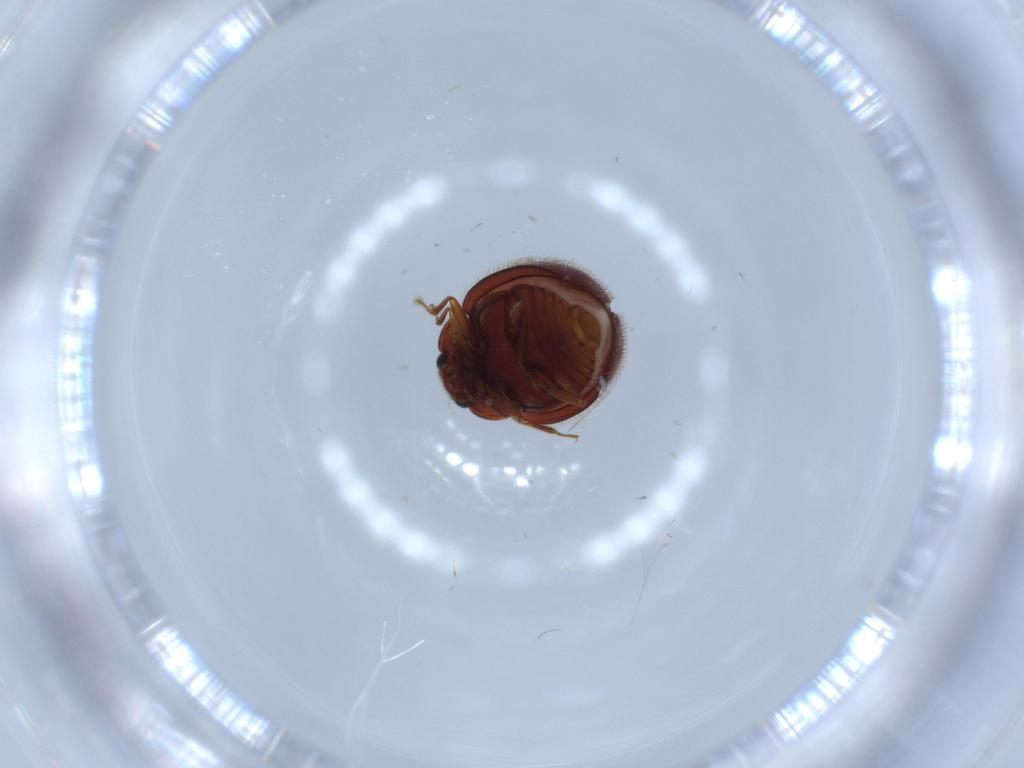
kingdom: Animalia
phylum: Arthropoda
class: Insecta
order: Coleoptera
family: Anamorphidae
